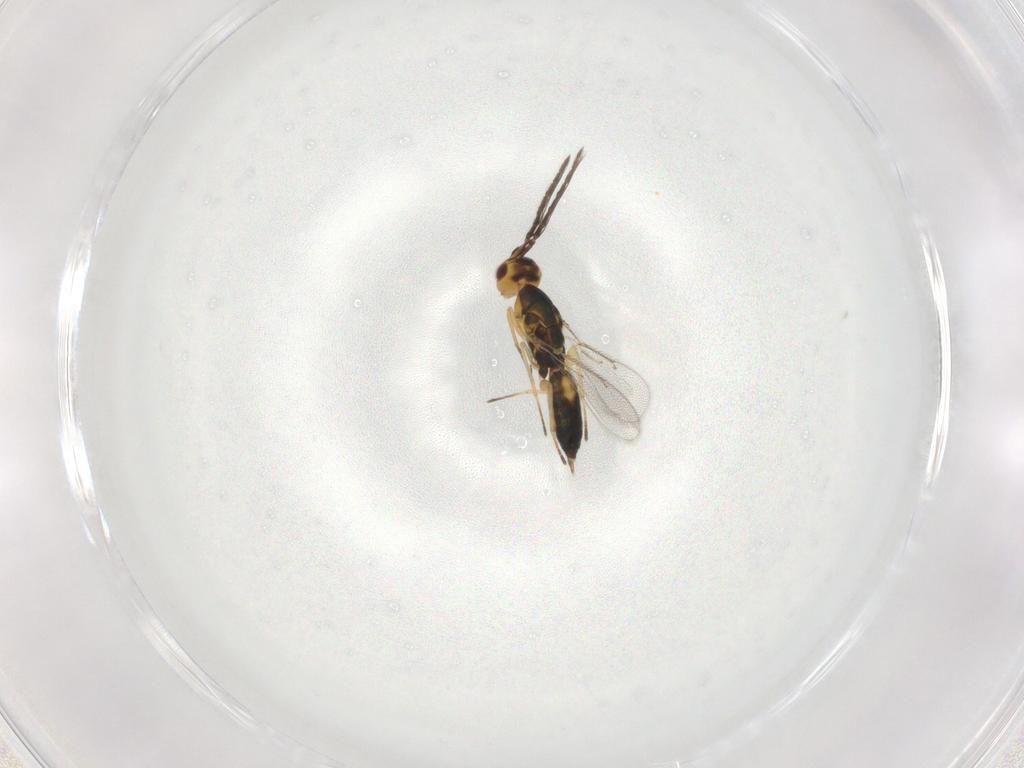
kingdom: Animalia
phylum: Arthropoda
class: Insecta
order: Hymenoptera
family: Eulophidae
